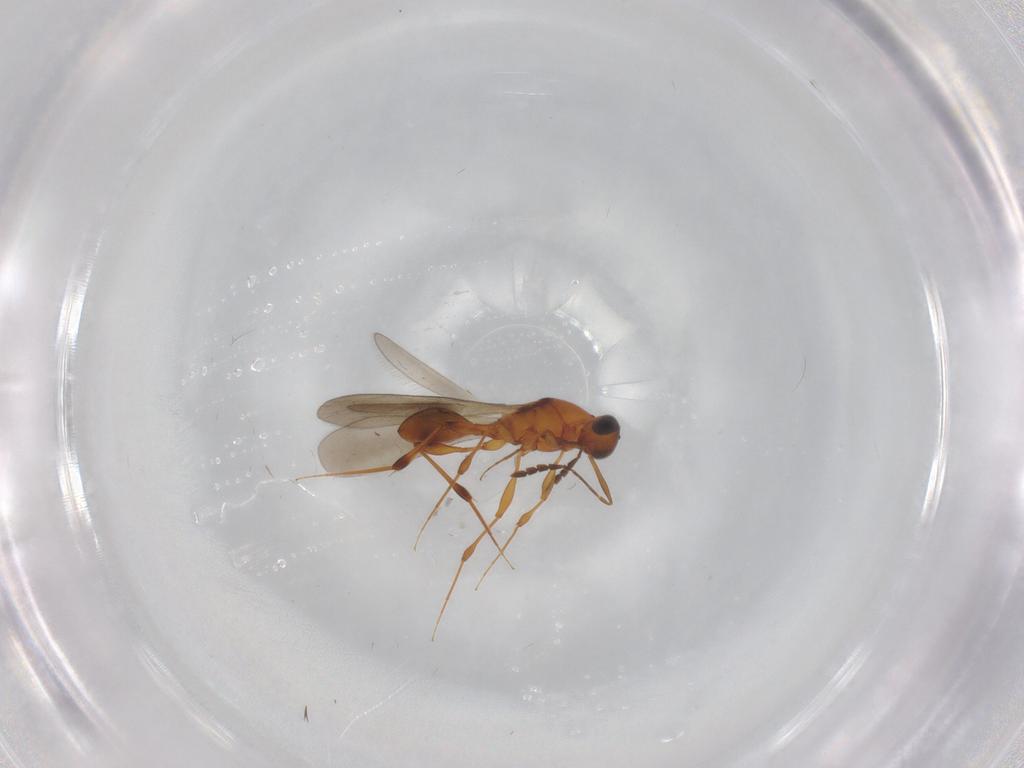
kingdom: Animalia
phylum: Arthropoda
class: Insecta
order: Hymenoptera
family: Platygastridae
